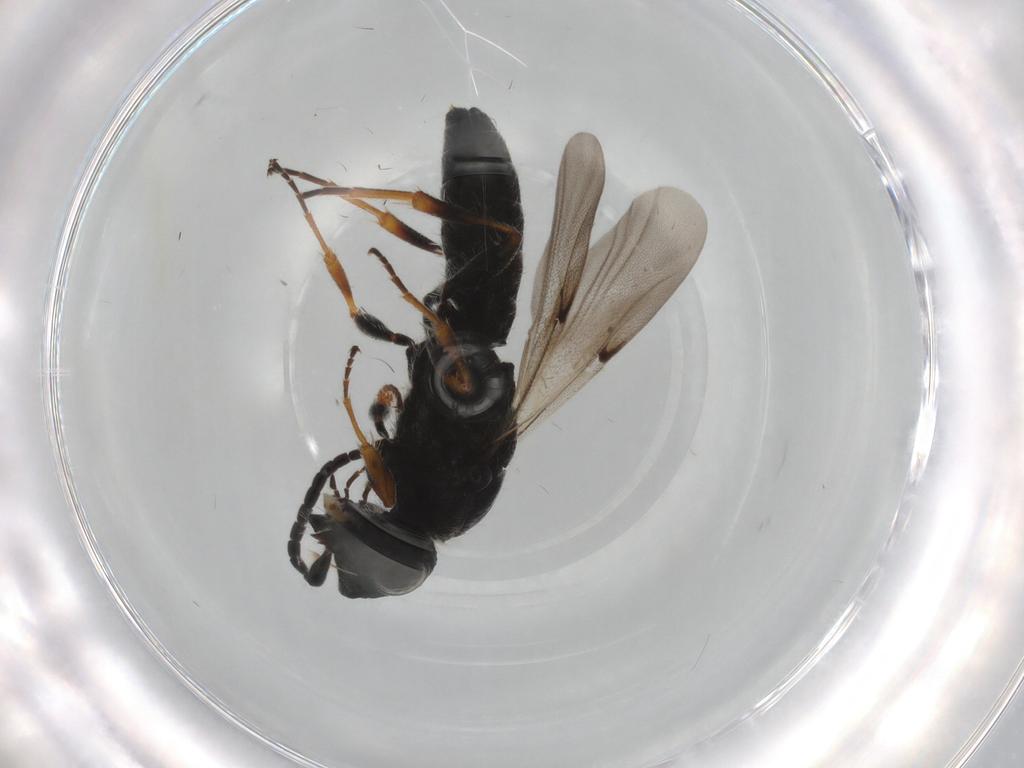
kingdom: Animalia
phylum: Arthropoda
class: Insecta
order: Hymenoptera
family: Scelionidae
